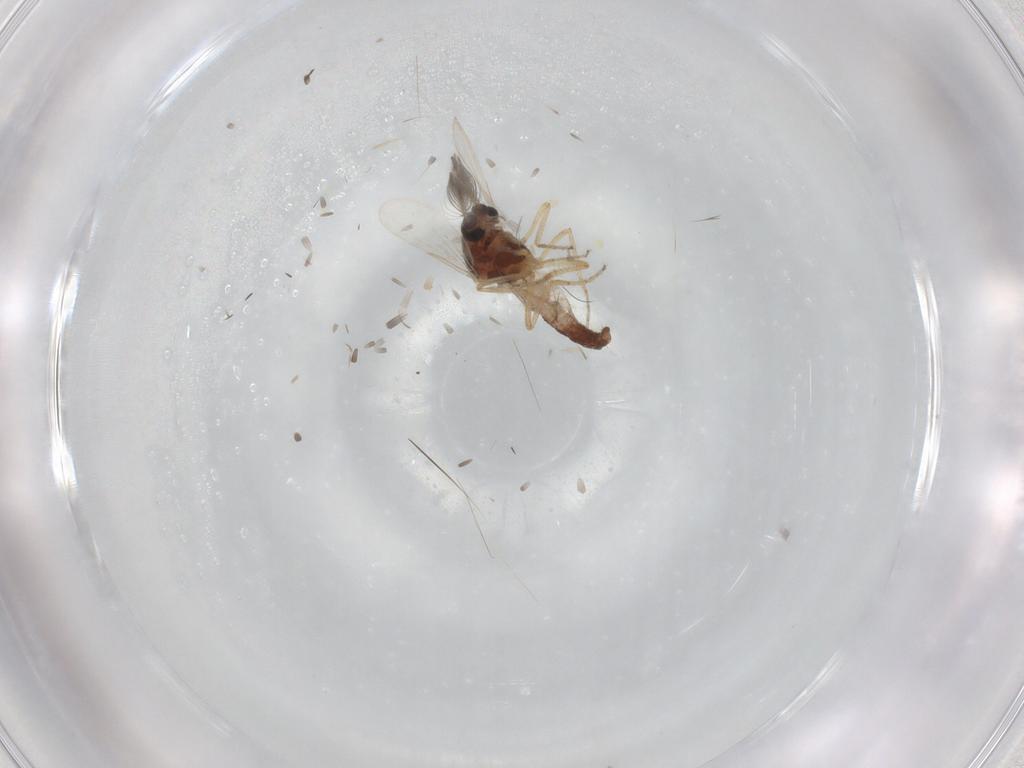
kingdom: Animalia
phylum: Arthropoda
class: Insecta
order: Diptera
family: Ceratopogonidae
